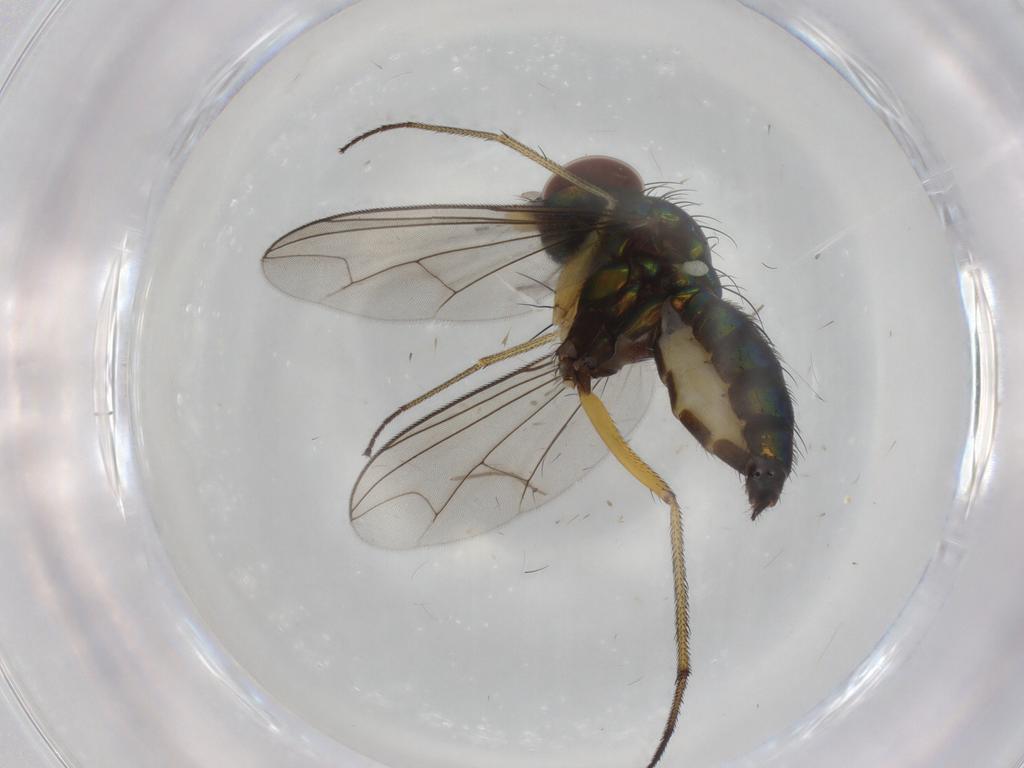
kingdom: Animalia
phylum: Arthropoda
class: Insecta
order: Diptera
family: Dolichopodidae
